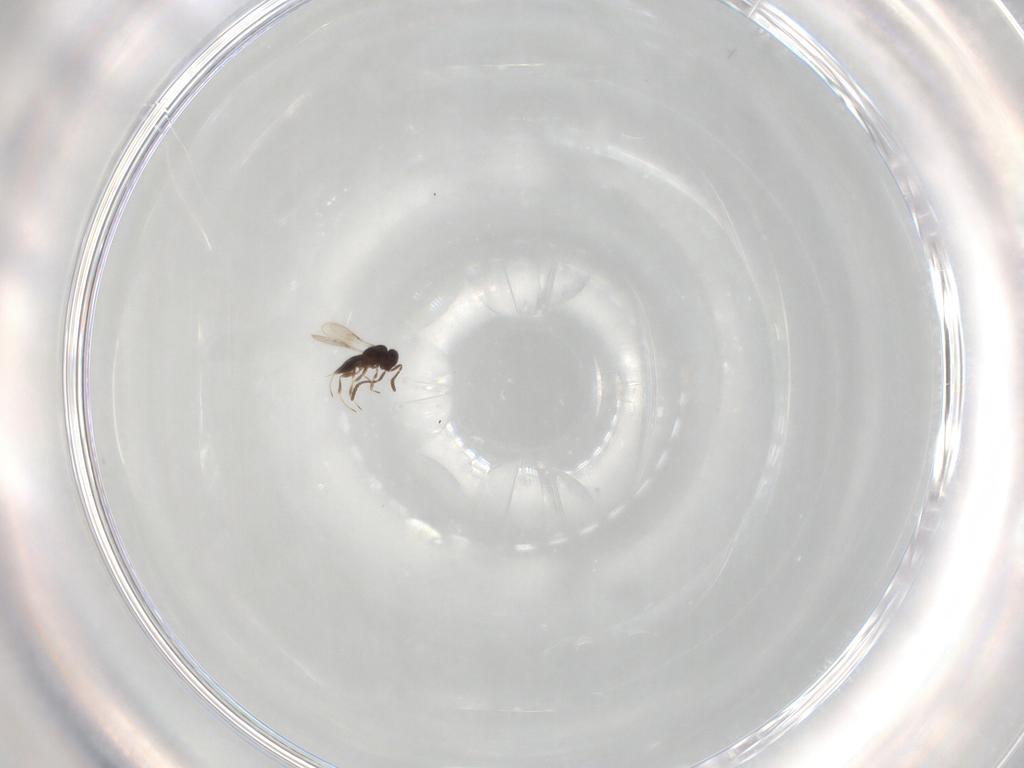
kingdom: Animalia
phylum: Arthropoda
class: Insecta
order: Hymenoptera
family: Scelionidae
